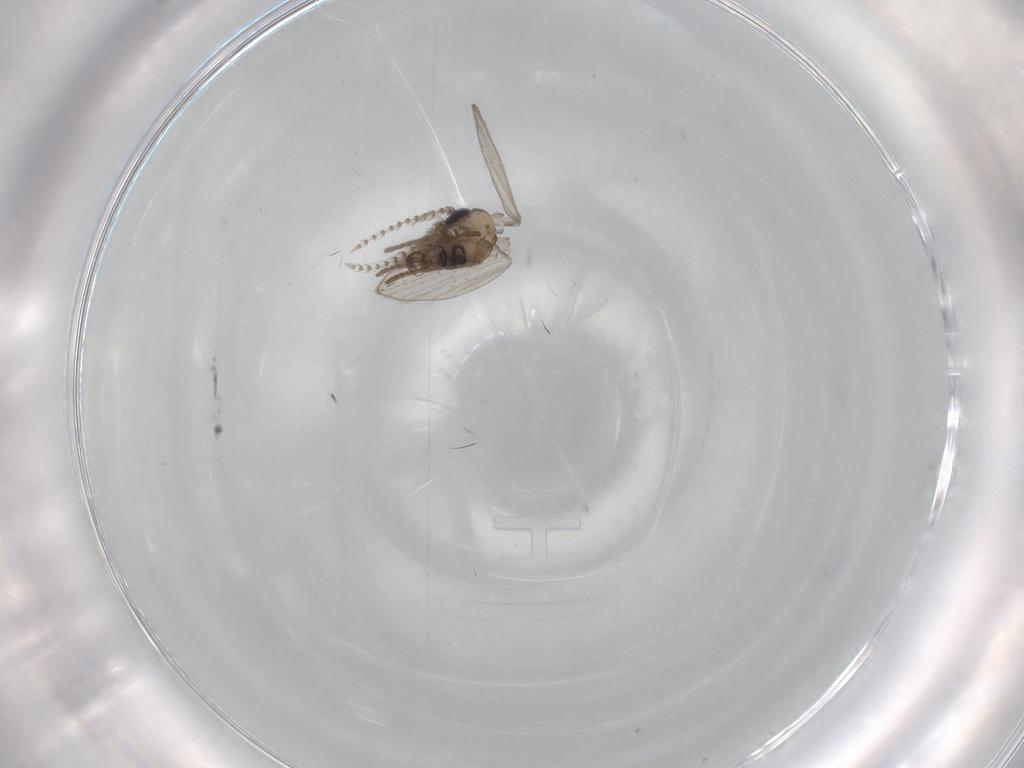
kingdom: Animalia
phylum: Arthropoda
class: Insecta
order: Diptera
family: Psychodidae
